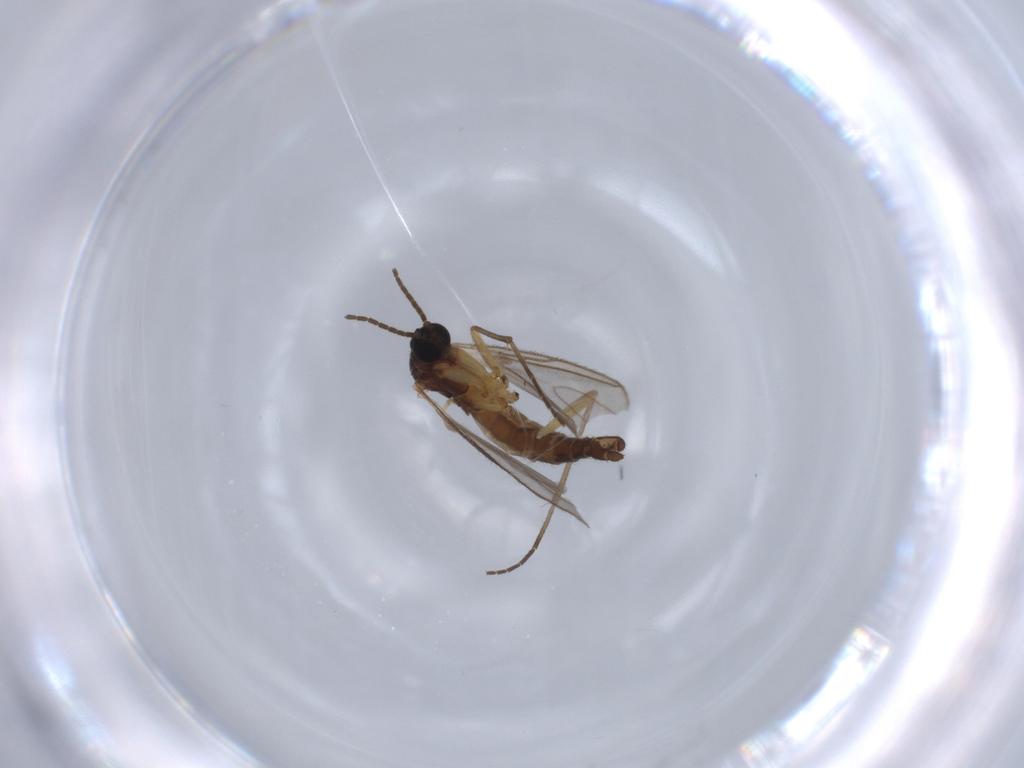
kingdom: Animalia
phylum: Arthropoda
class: Insecta
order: Diptera
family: Sciaridae
